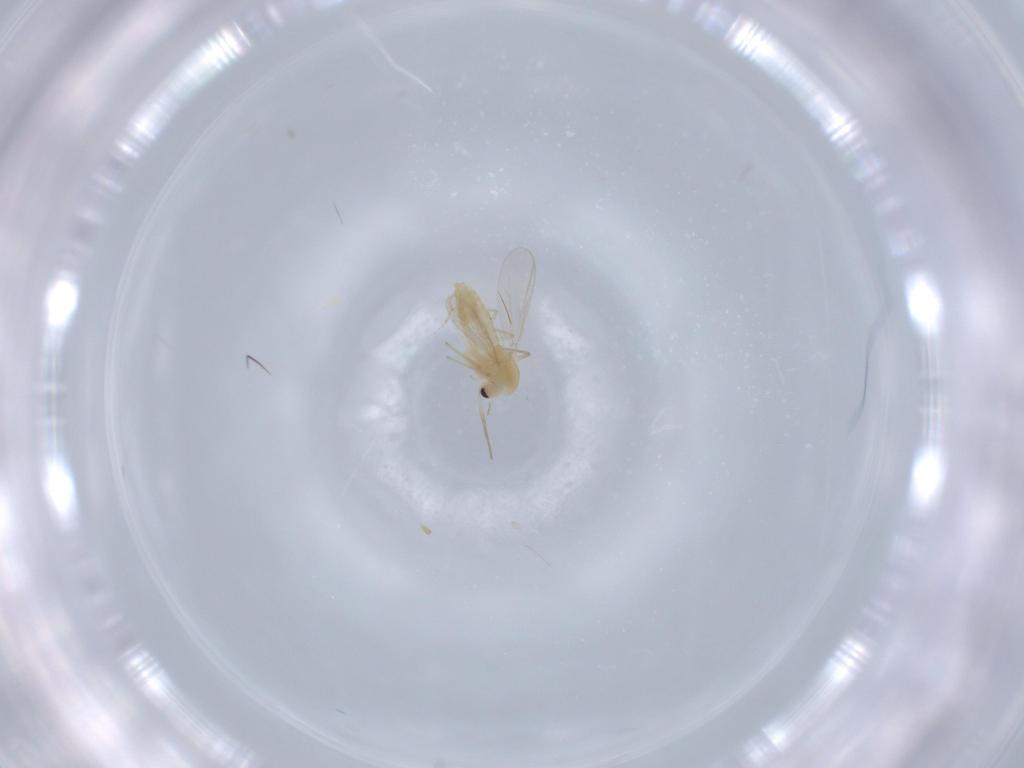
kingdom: Animalia
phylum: Arthropoda
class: Insecta
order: Diptera
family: Chironomidae
